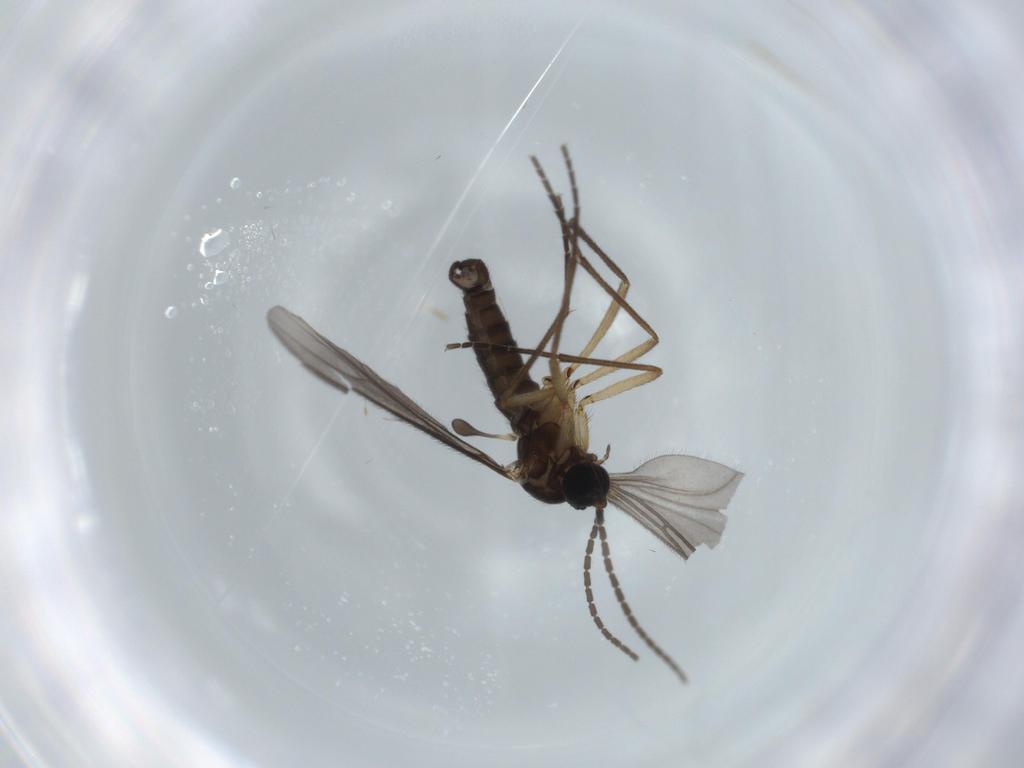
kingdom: Animalia
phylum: Arthropoda
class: Insecta
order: Diptera
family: Sciaridae
